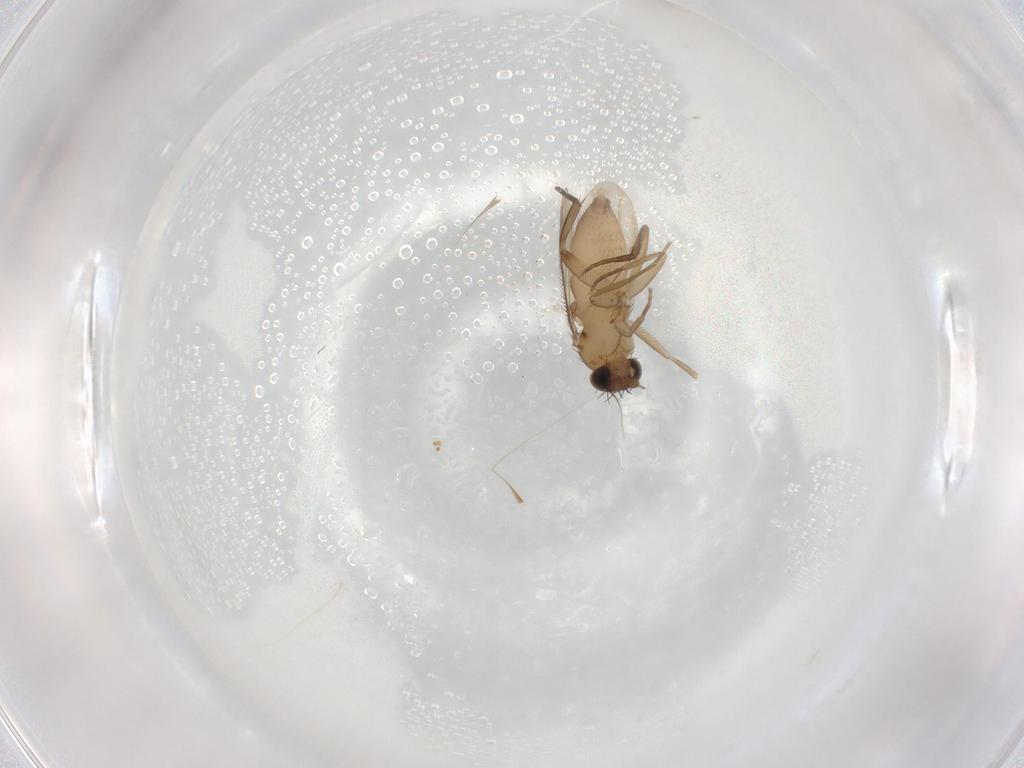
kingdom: Animalia
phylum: Arthropoda
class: Insecta
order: Diptera
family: Phoridae
